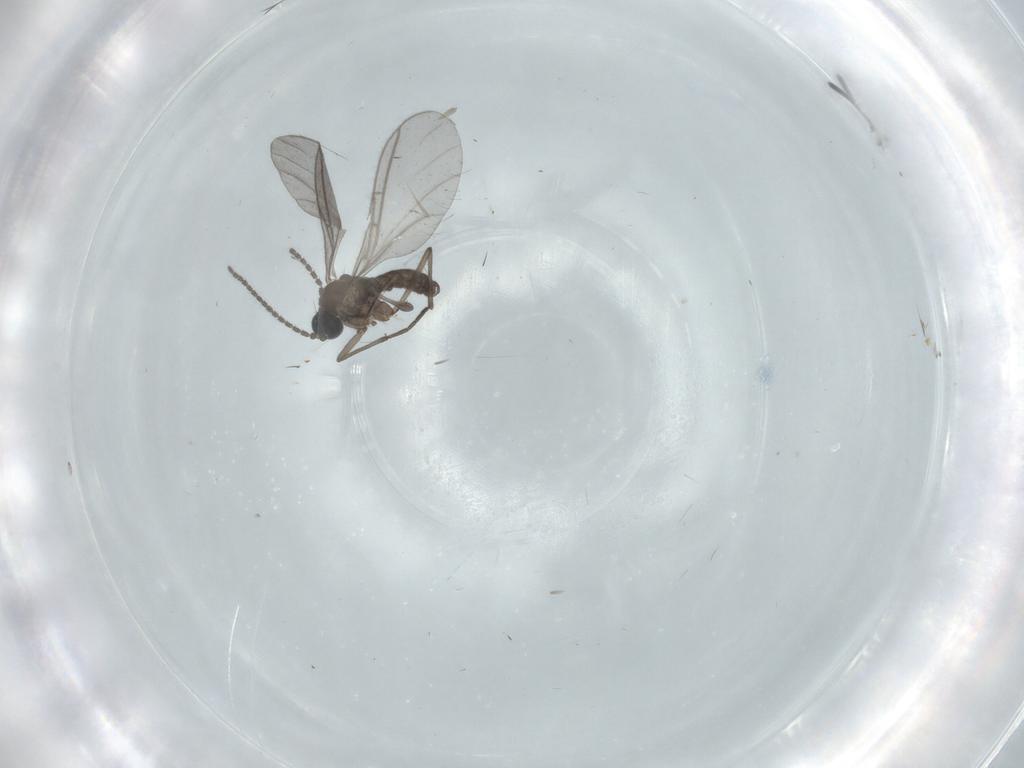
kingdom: Animalia
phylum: Arthropoda
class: Insecta
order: Diptera
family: Sciaridae
